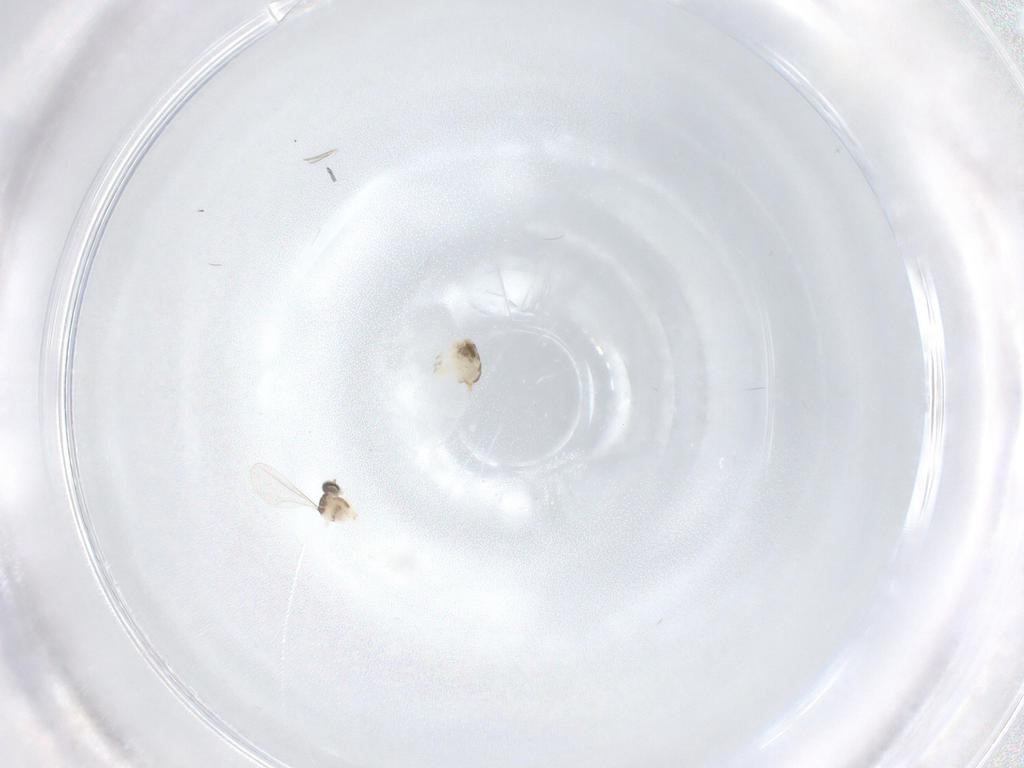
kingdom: Animalia
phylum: Arthropoda
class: Insecta
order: Diptera
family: Cecidomyiidae
